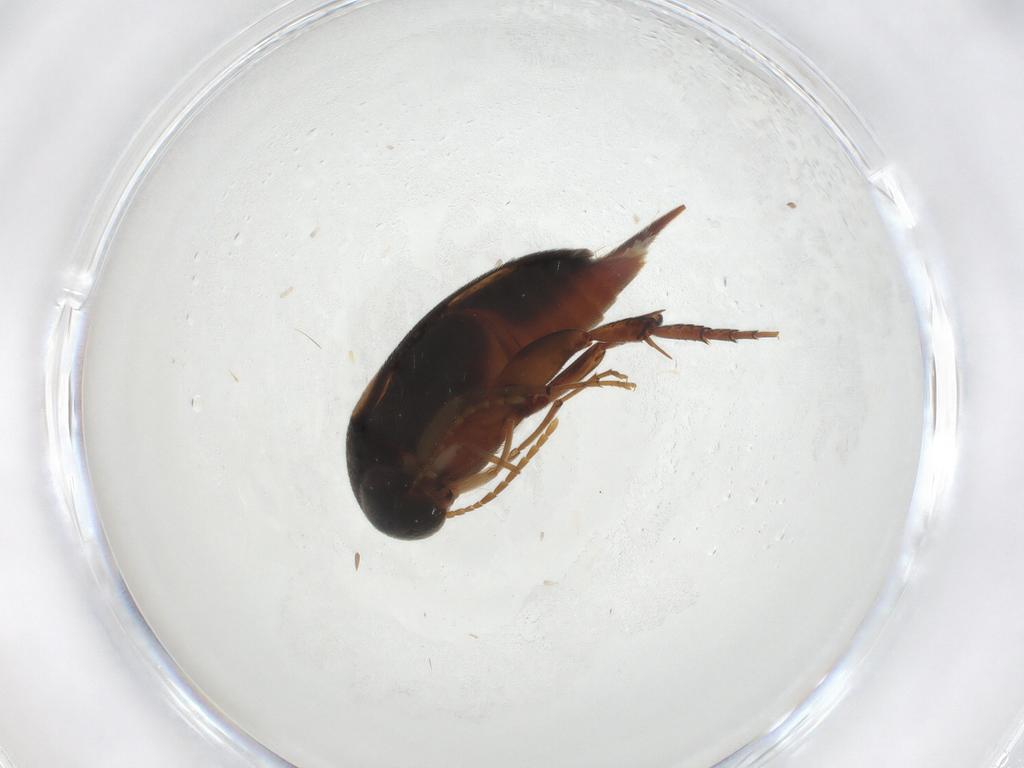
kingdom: Animalia
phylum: Arthropoda
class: Insecta
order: Coleoptera
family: Mordellidae
